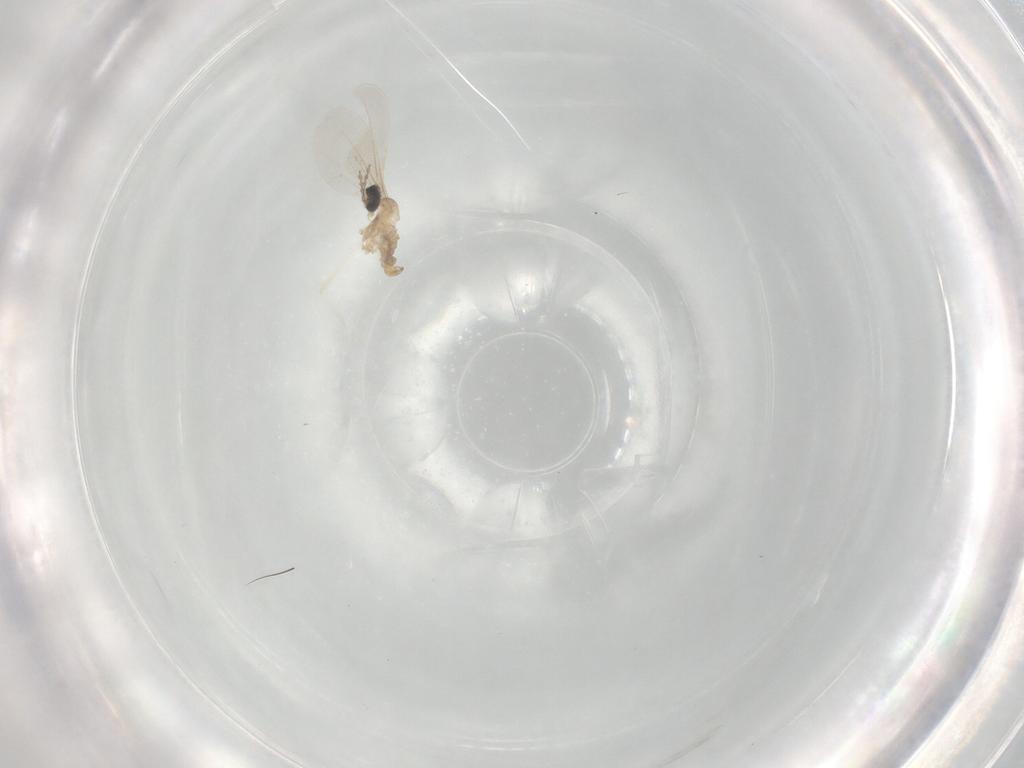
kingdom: Animalia
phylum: Arthropoda
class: Insecta
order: Diptera
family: Cecidomyiidae
